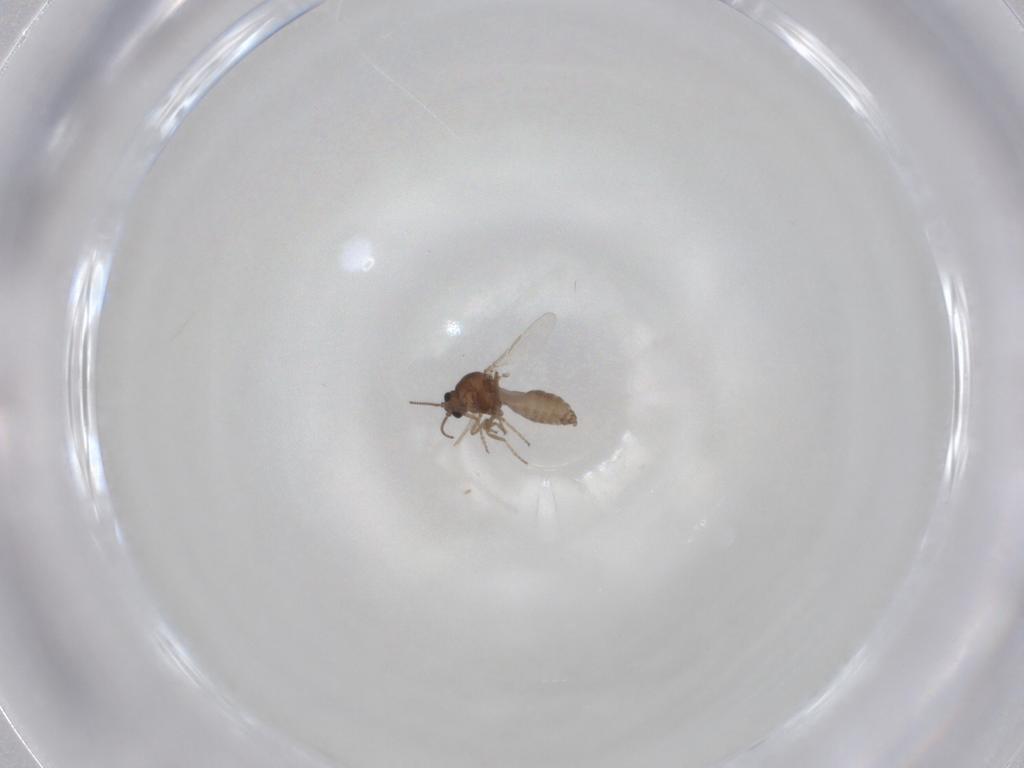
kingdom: Animalia
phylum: Arthropoda
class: Insecta
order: Diptera
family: Ceratopogonidae
